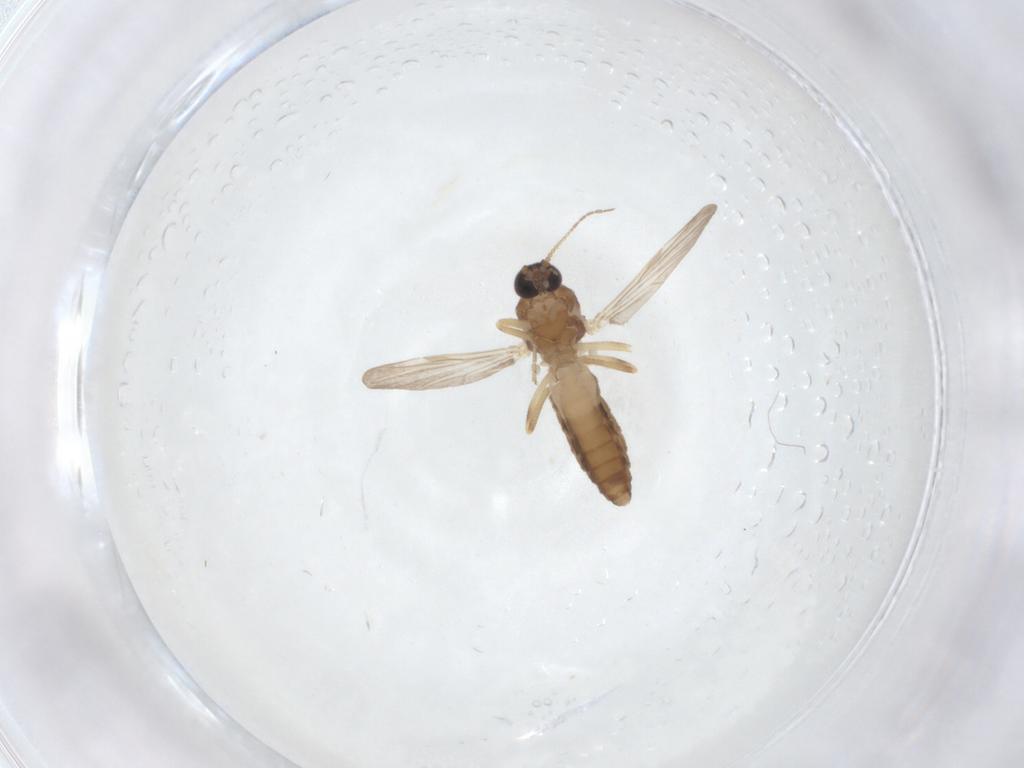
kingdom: Animalia
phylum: Arthropoda
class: Insecta
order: Diptera
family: Ceratopogonidae
